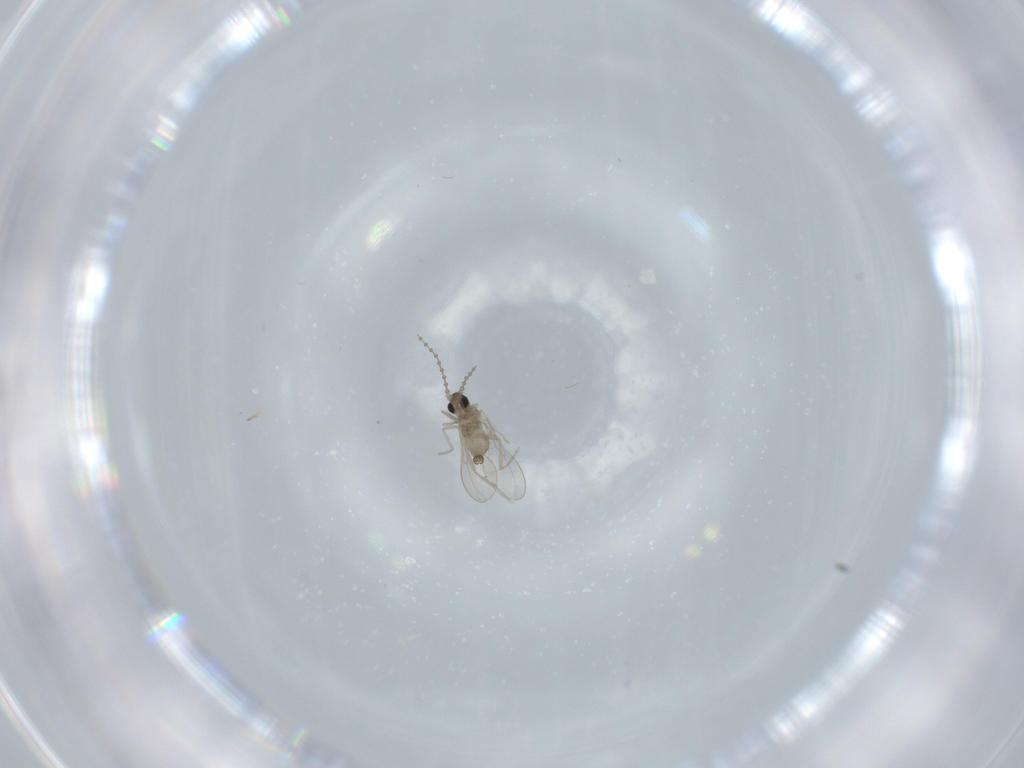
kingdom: Animalia
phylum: Arthropoda
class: Insecta
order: Diptera
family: Cecidomyiidae
